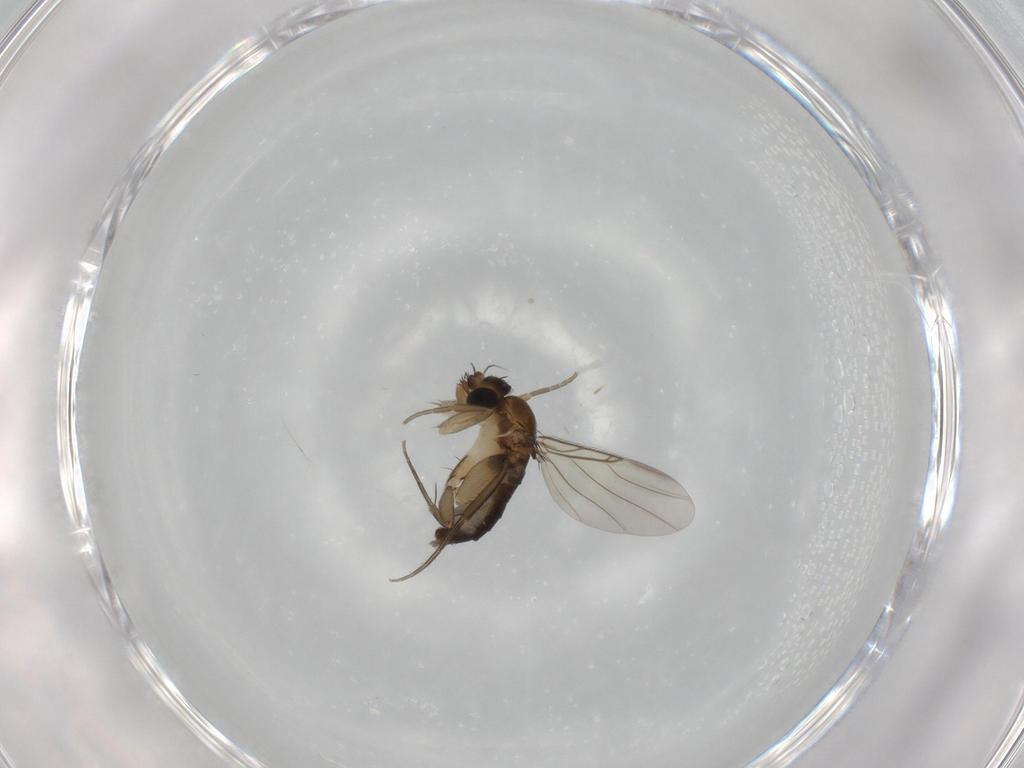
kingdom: Animalia
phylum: Arthropoda
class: Insecta
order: Diptera
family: Phoridae
